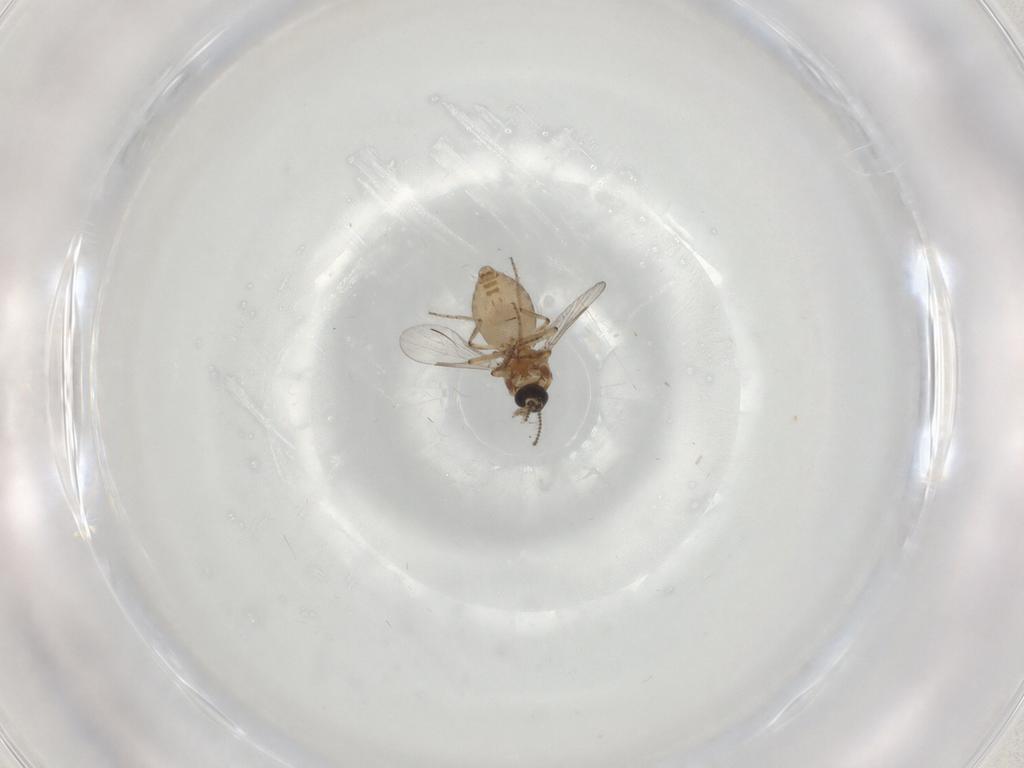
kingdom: Animalia
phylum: Arthropoda
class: Insecta
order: Diptera
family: Ceratopogonidae
